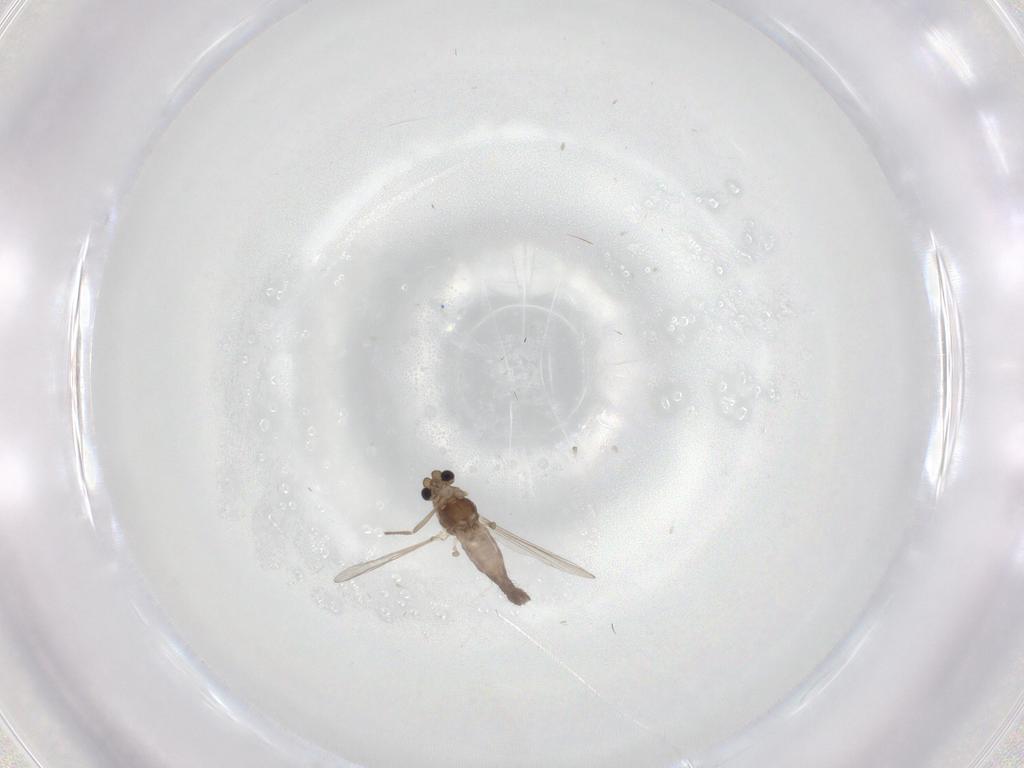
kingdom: Animalia
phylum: Arthropoda
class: Insecta
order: Diptera
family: Chironomidae
